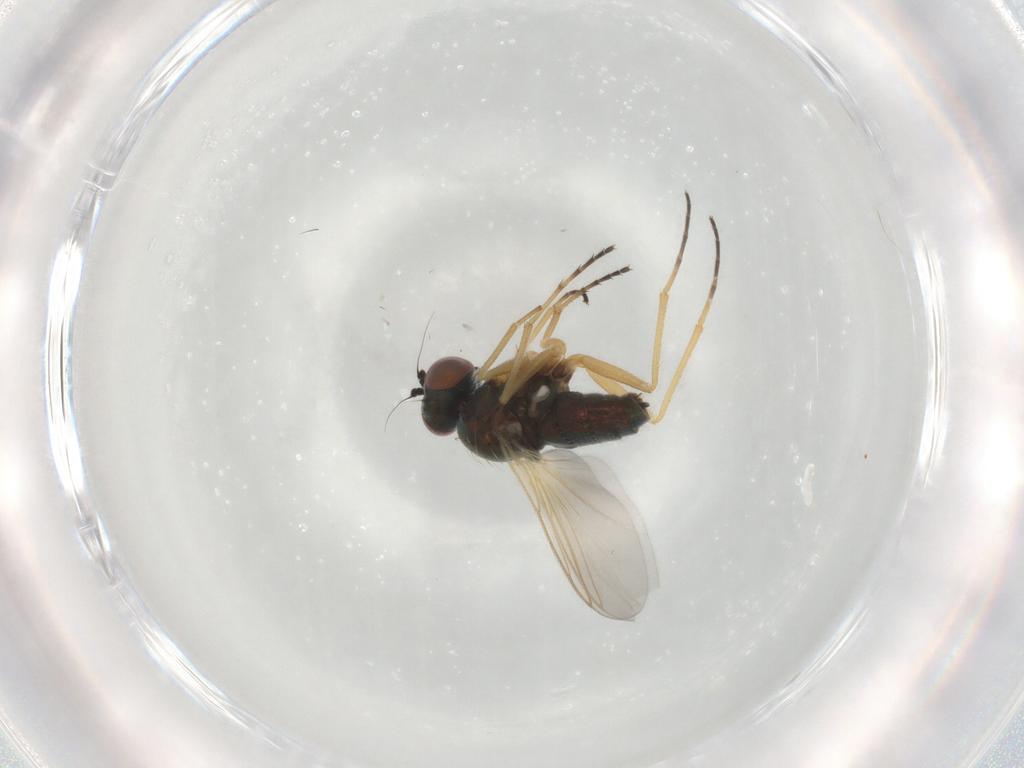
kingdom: Animalia
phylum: Arthropoda
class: Insecta
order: Diptera
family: Dolichopodidae
